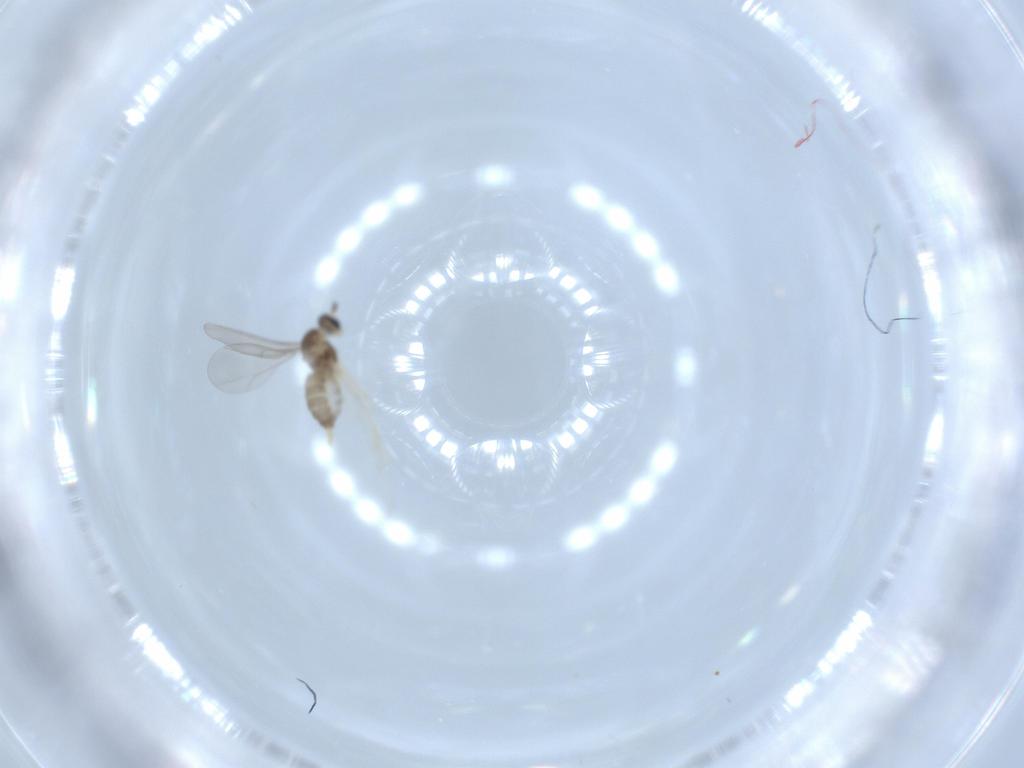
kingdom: Animalia
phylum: Arthropoda
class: Insecta
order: Diptera
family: Cecidomyiidae
